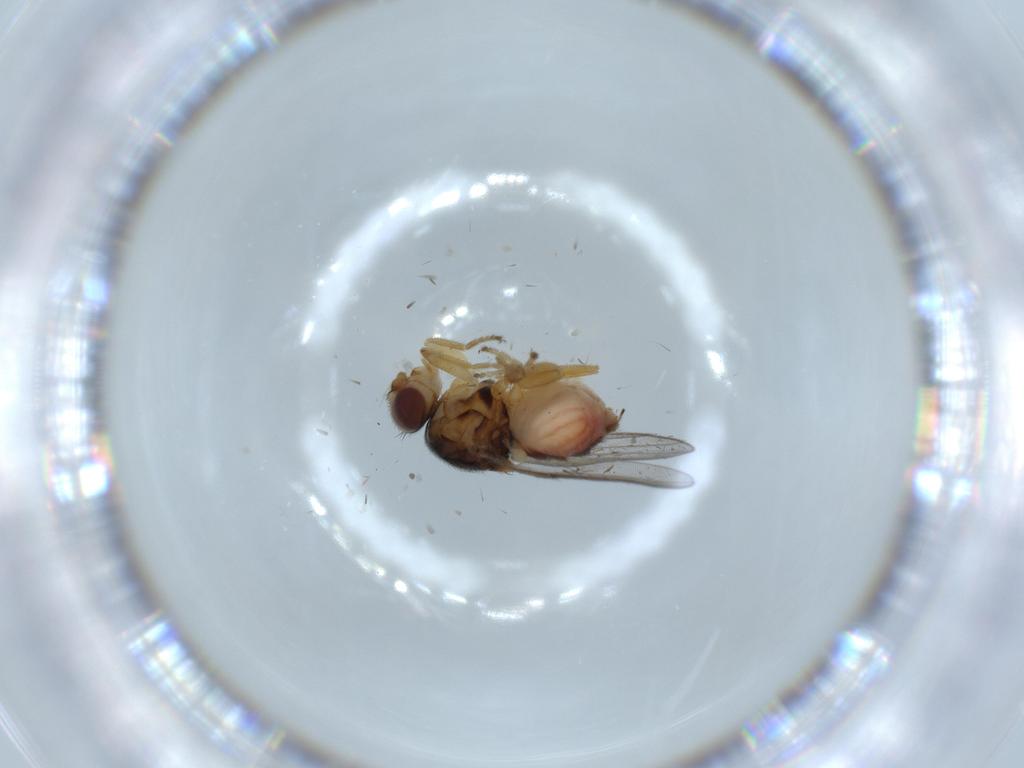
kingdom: Animalia
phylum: Arthropoda
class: Insecta
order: Diptera
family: Chloropidae
